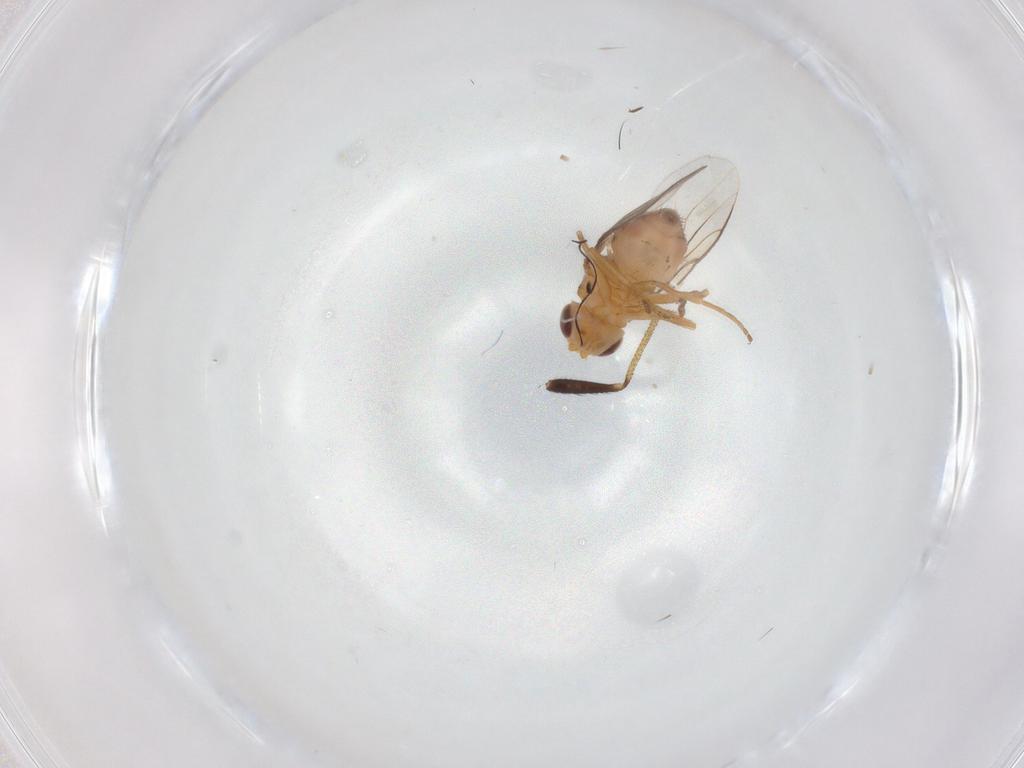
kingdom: Animalia
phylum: Arthropoda
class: Insecta
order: Diptera
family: Chloropidae
